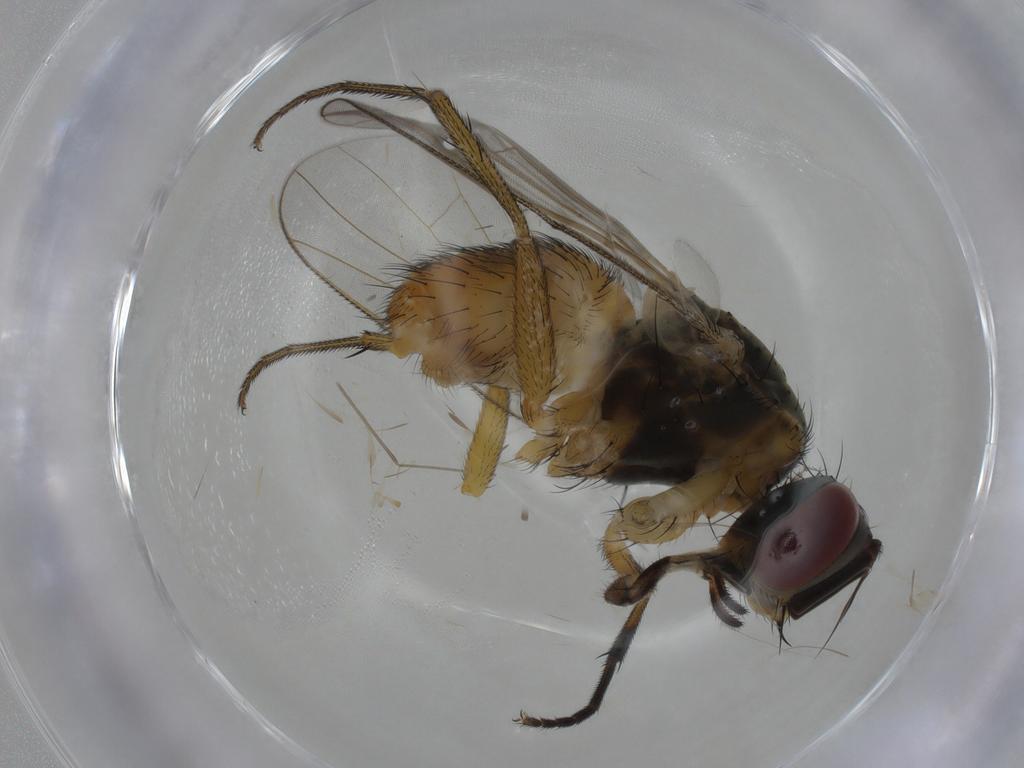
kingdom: Animalia
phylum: Arthropoda
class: Insecta
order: Diptera
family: Muscidae
